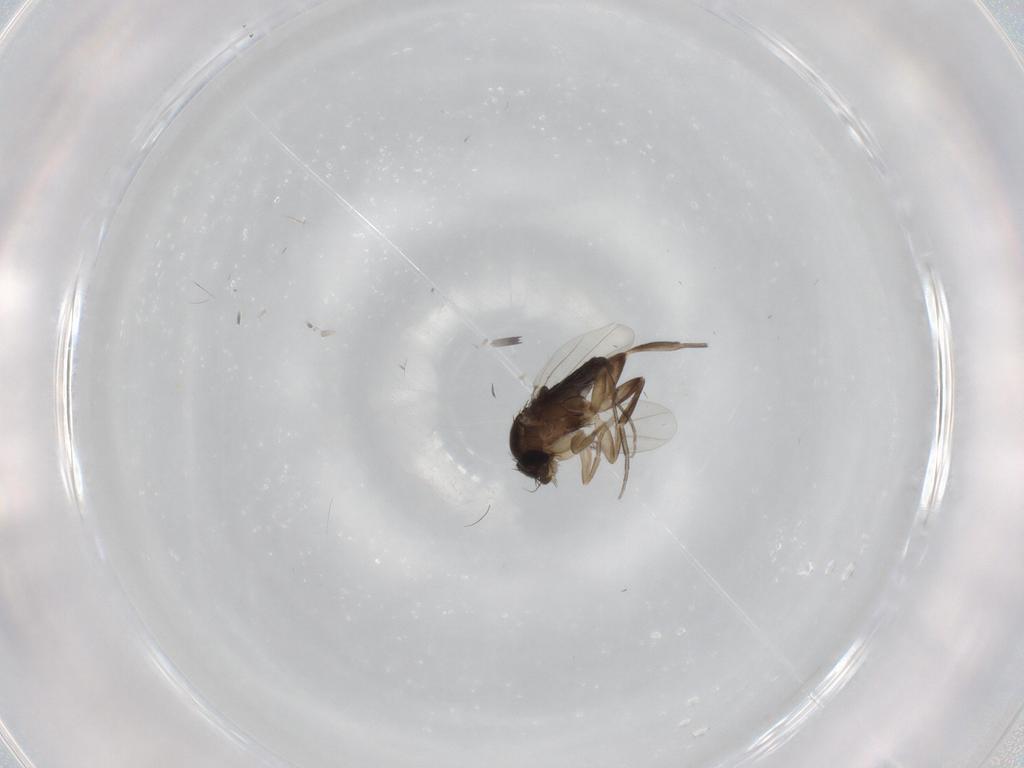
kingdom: Animalia
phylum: Arthropoda
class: Insecta
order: Diptera
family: Phoridae
